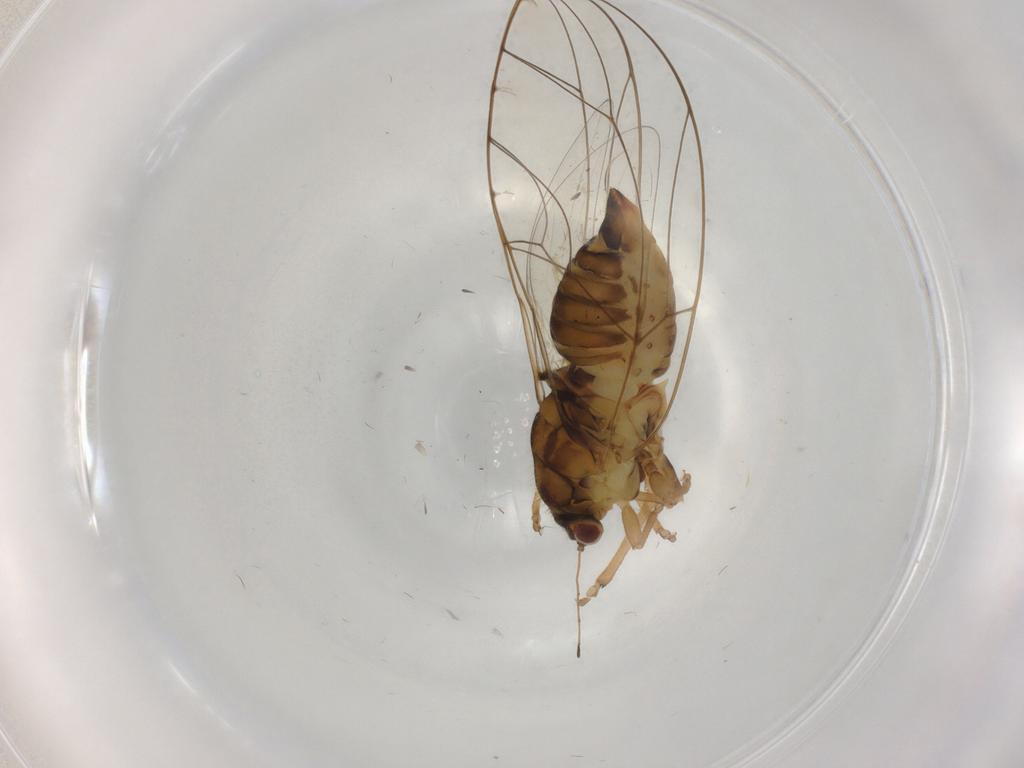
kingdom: Animalia
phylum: Arthropoda
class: Insecta
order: Hemiptera
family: Cicadellidae
